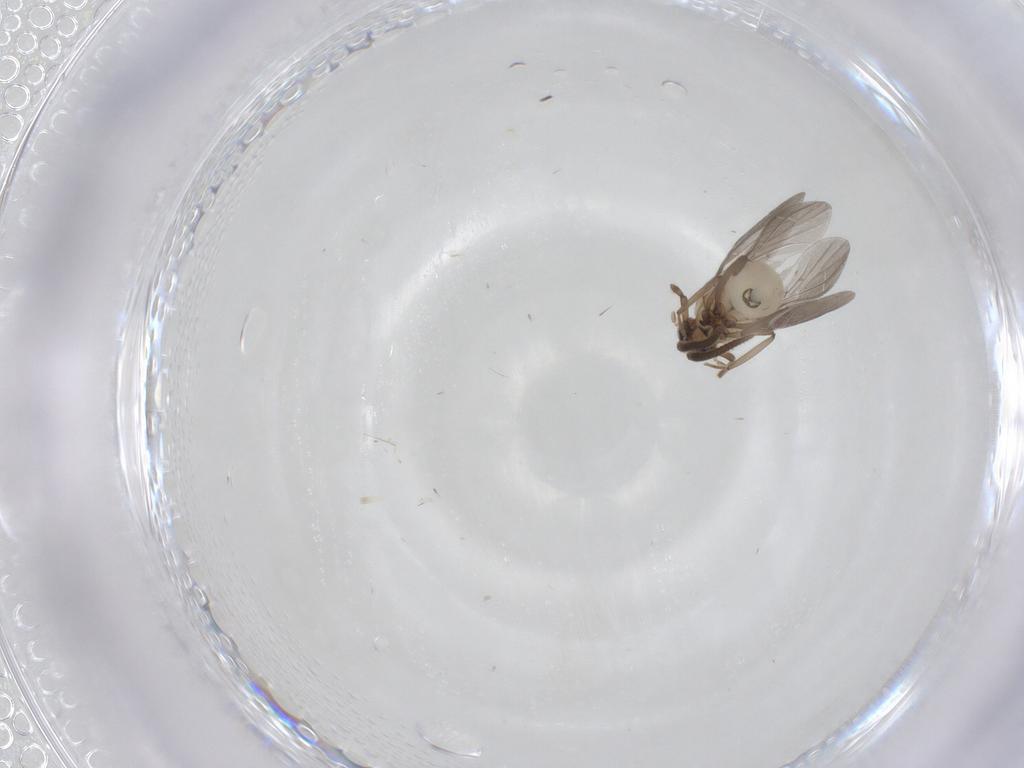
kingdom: Animalia
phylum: Arthropoda
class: Insecta
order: Neuroptera
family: Coniopterygidae
